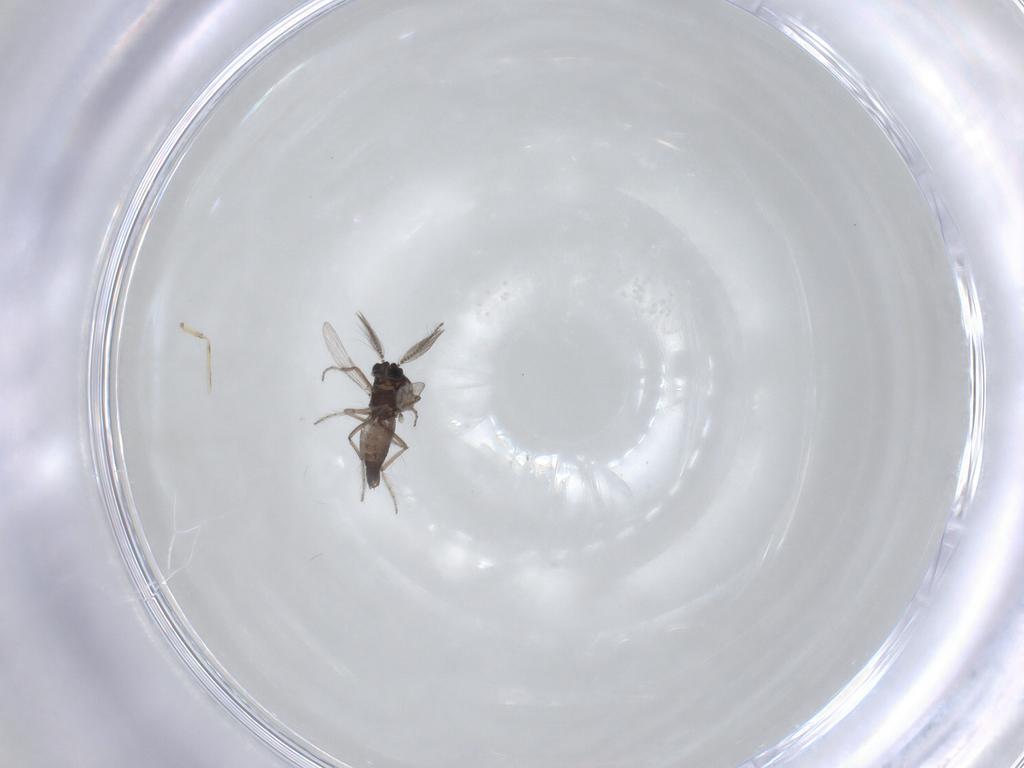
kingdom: Animalia
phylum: Arthropoda
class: Insecta
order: Diptera
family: Ceratopogonidae
